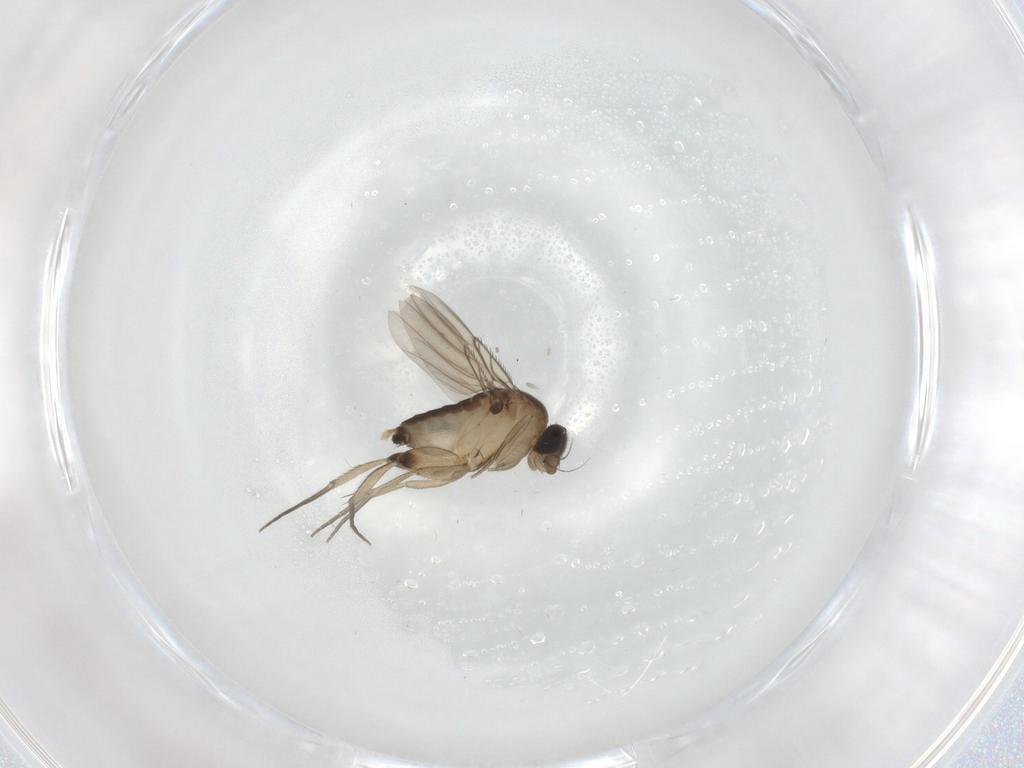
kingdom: Animalia
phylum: Arthropoda
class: Insecta
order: Diptera
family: Phoridae
